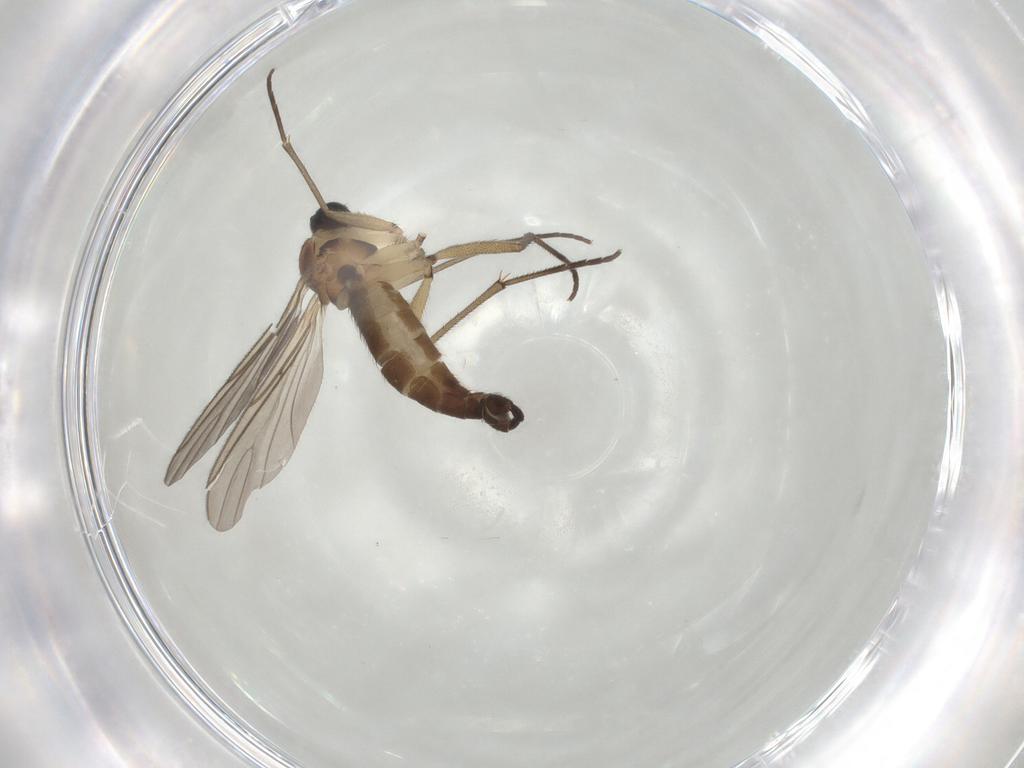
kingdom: Animalia
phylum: Arthropoda
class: Insecta
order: Diptera
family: Sciaridae
